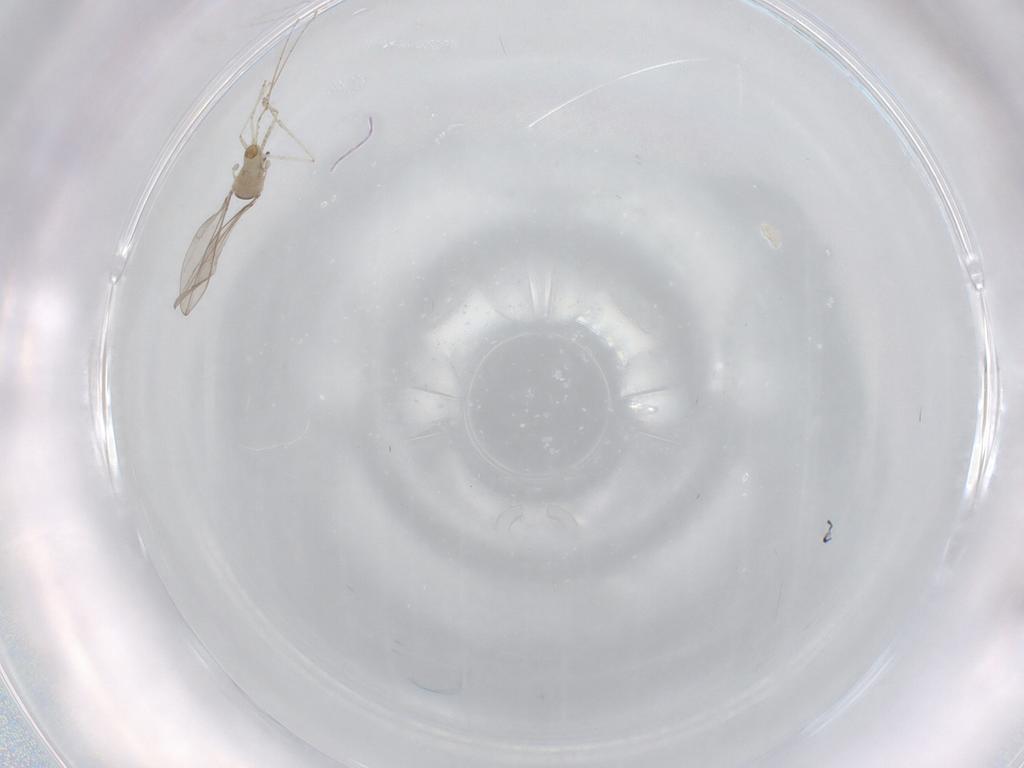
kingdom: Animalia
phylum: Arthropoda
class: Insecta
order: Diptera
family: Cecidomyiidae
